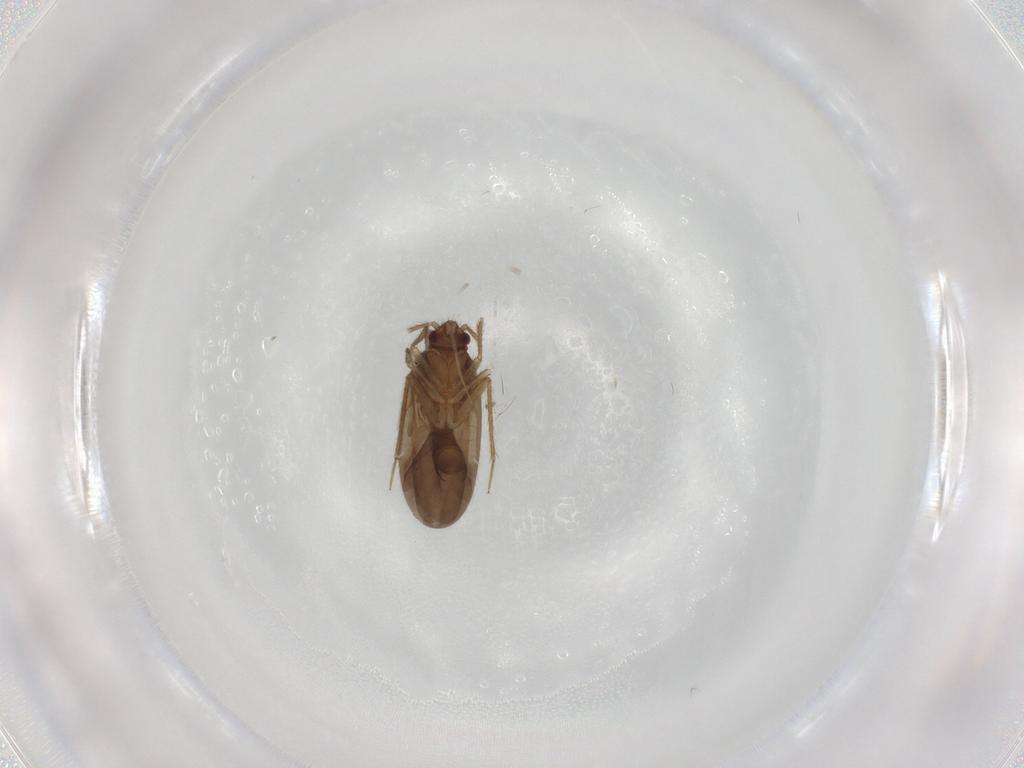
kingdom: Animalia
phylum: Arthropoda
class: Insecta
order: Hemiptera
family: Ceratocombidae
